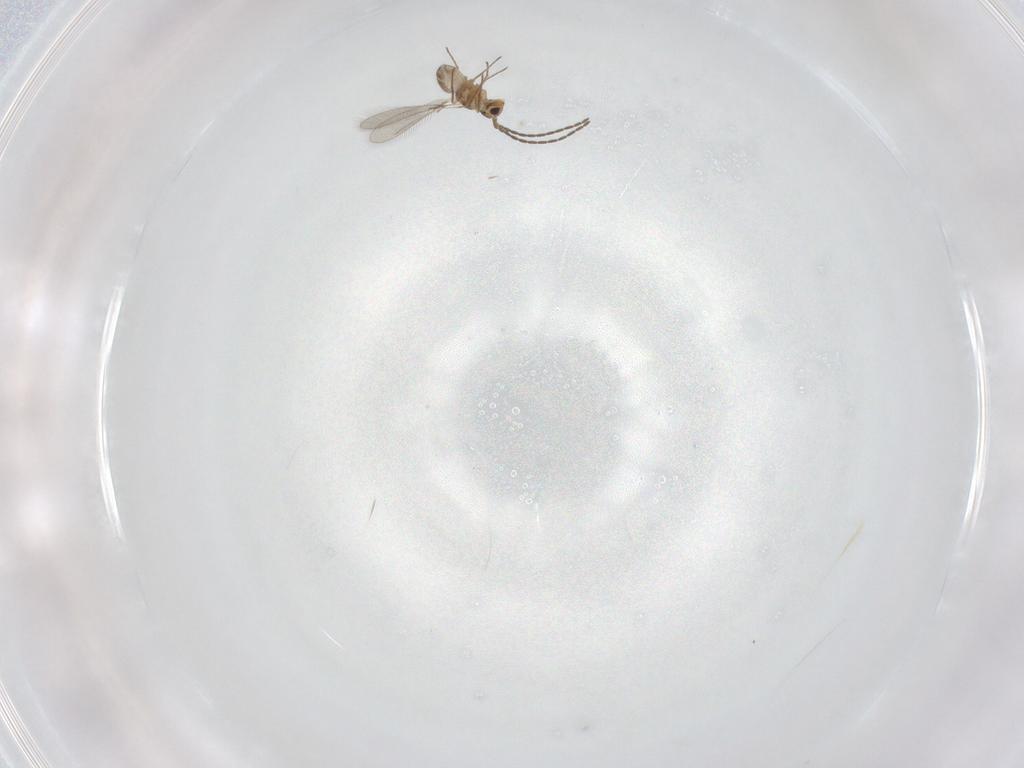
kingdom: Animalia
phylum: Arthropoda
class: Insecta
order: Hymenoptera
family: Mymaridae
